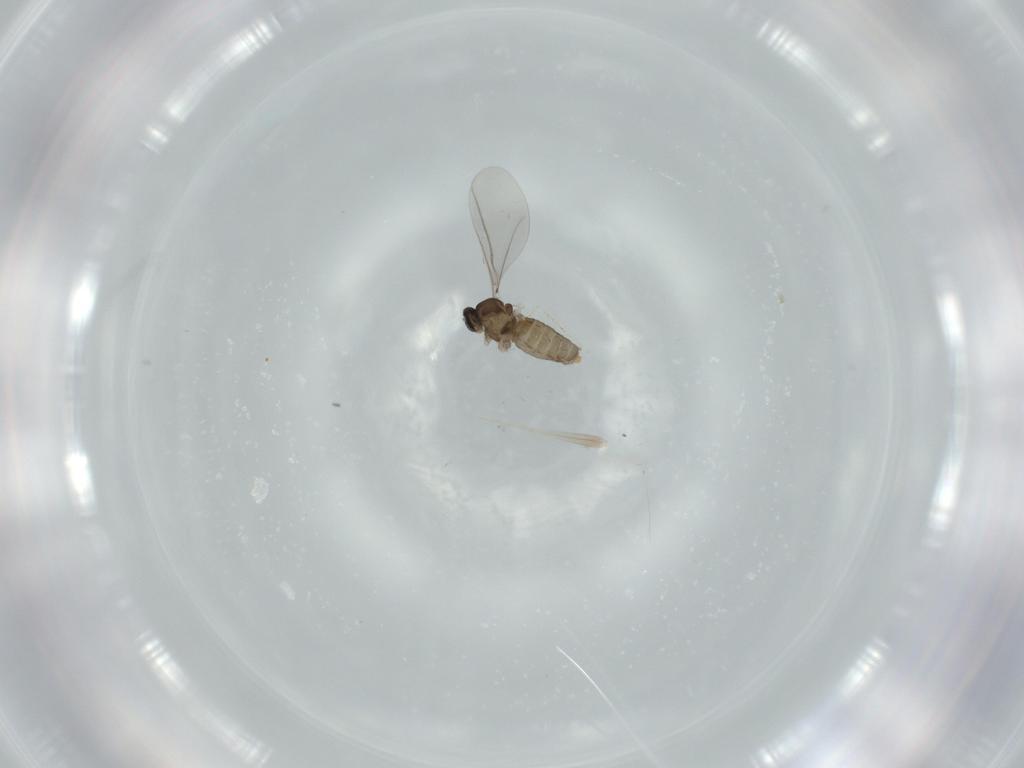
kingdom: Animalia
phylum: Arthropoda
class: Insecta
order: Diptera
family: Cecidomyiidae
